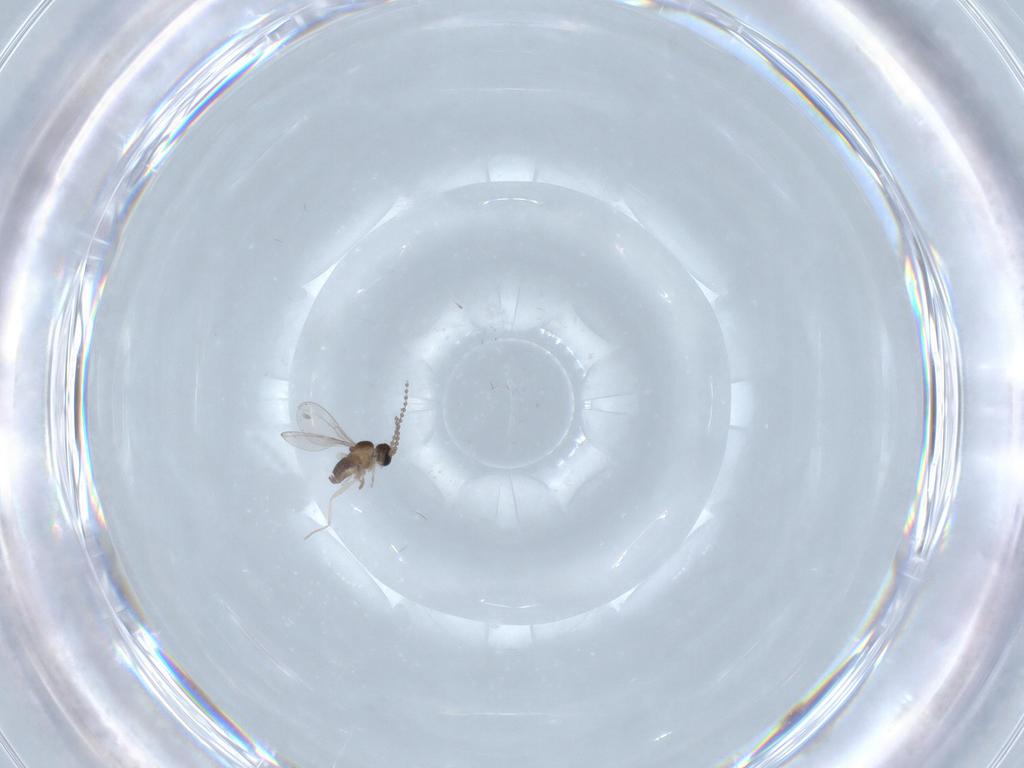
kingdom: Animalia
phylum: Arthropoda
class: Insecta
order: Diptera
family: Cecidomyiidae
